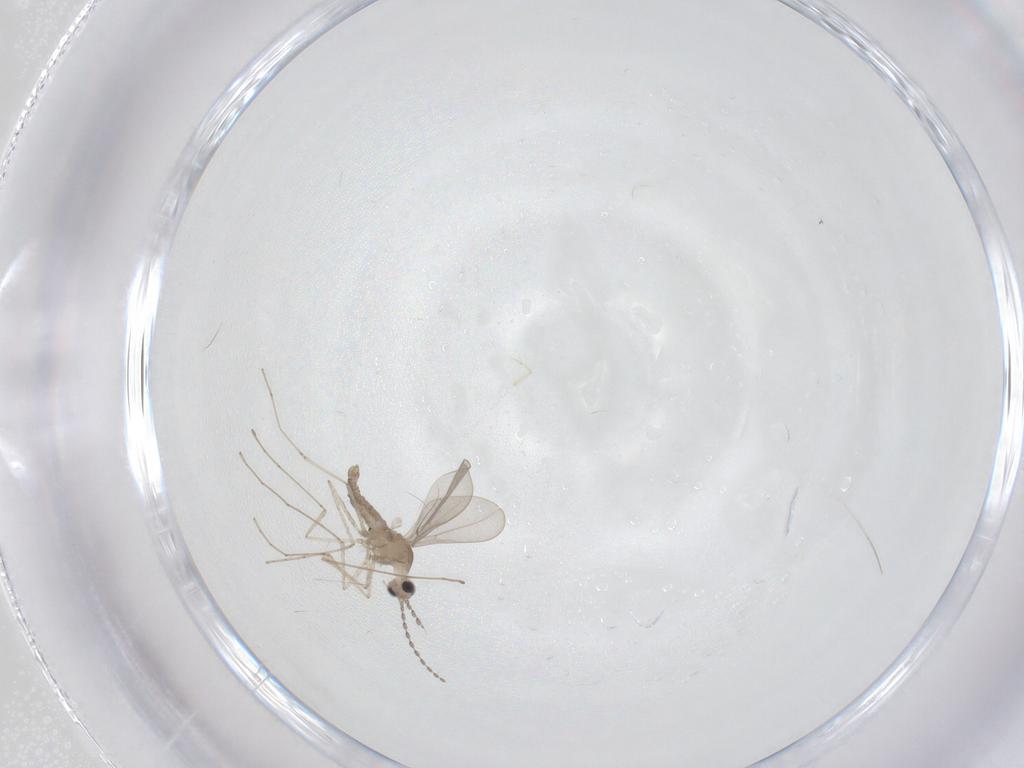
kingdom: Animalia
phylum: Arthropoda
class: Insecta
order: Diptera
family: Cecidomyiidae
